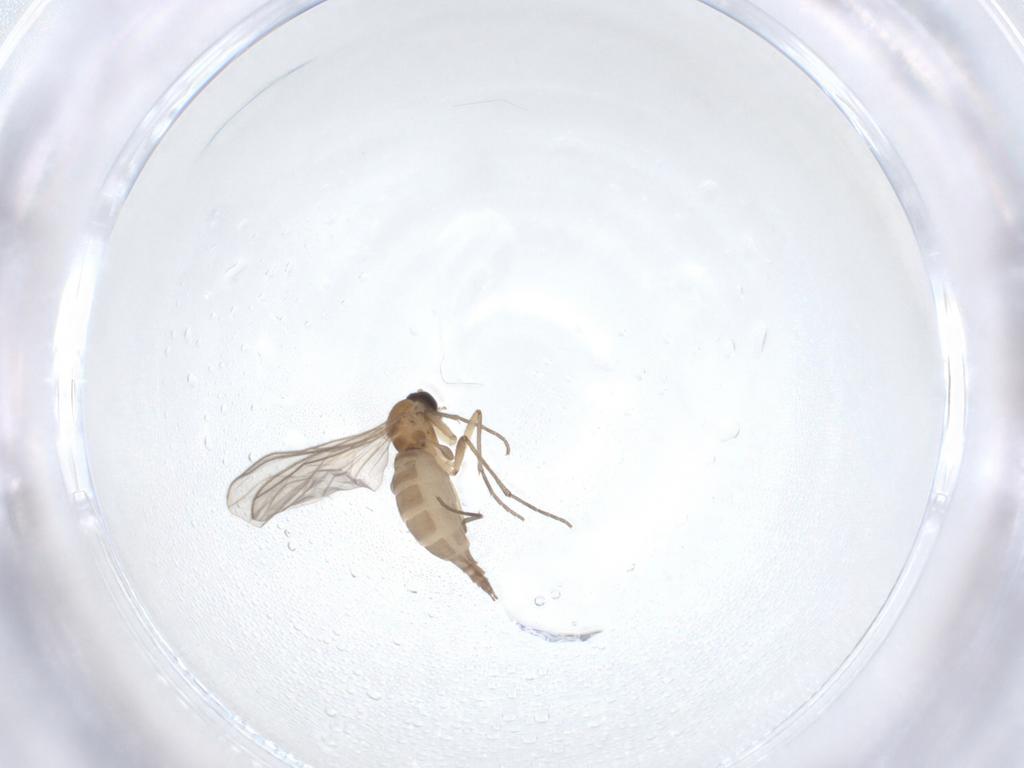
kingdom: Animalia
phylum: Arthropoda
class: Insecta
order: Diptera
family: Sciaridae
